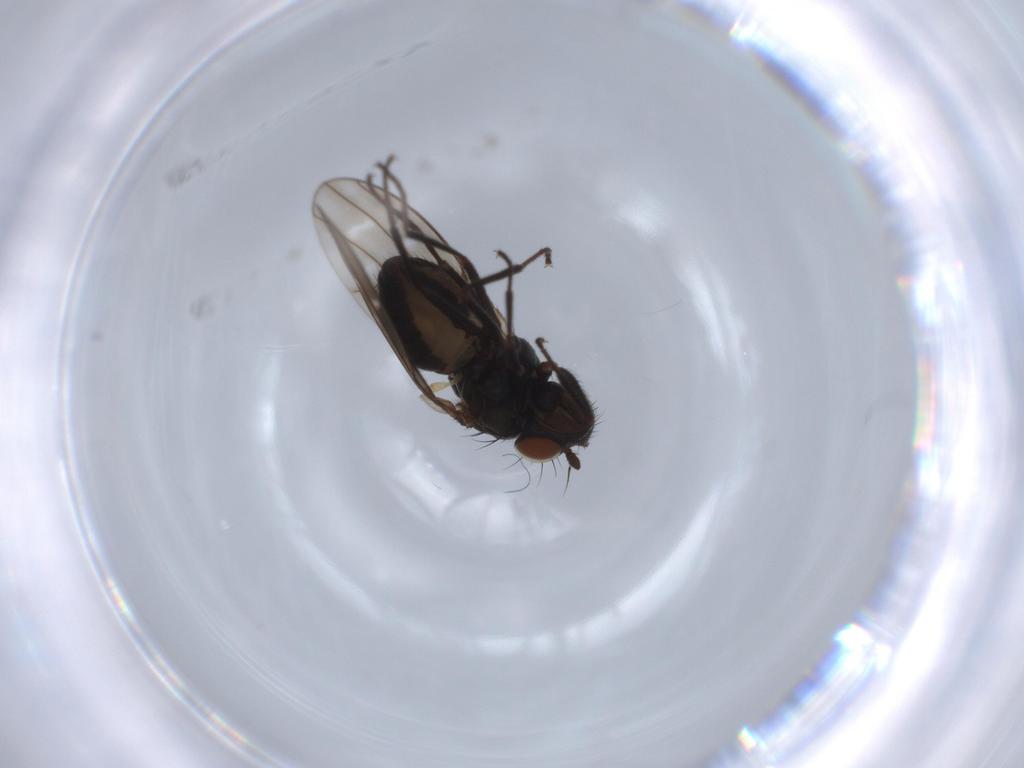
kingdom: Animalia
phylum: Arthropoda
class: Insecta
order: Diptera
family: Ephydridae
